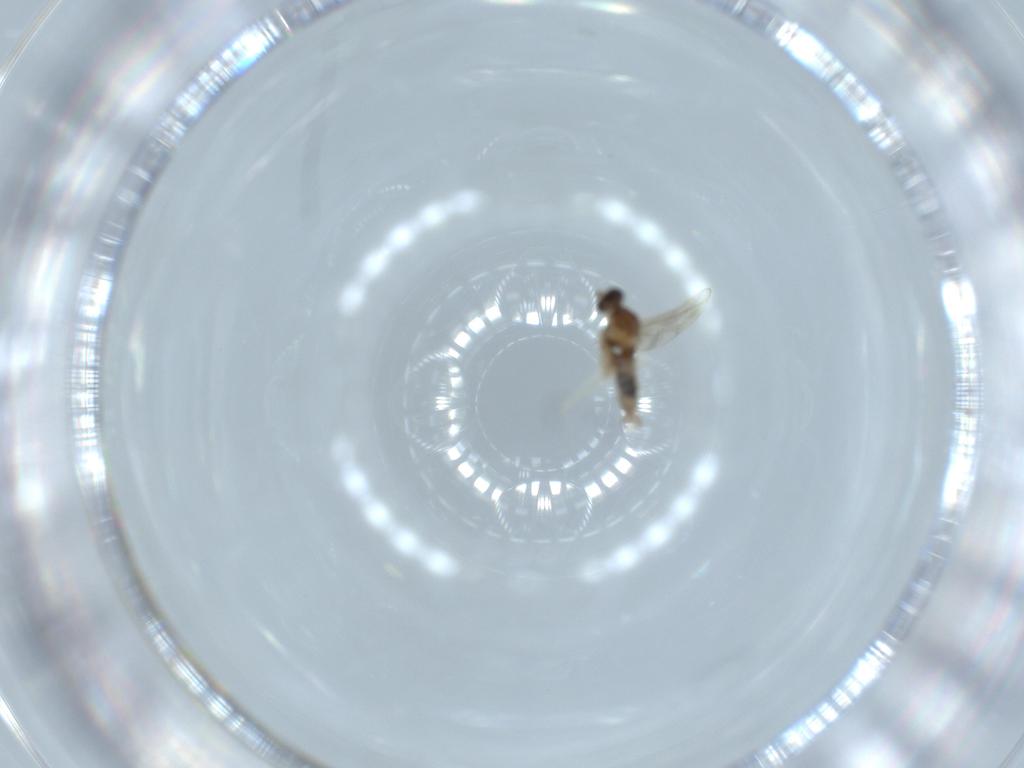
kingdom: Animalia
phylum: Arthropoda
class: Insecta
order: Diptera
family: Cecidomyiidae
